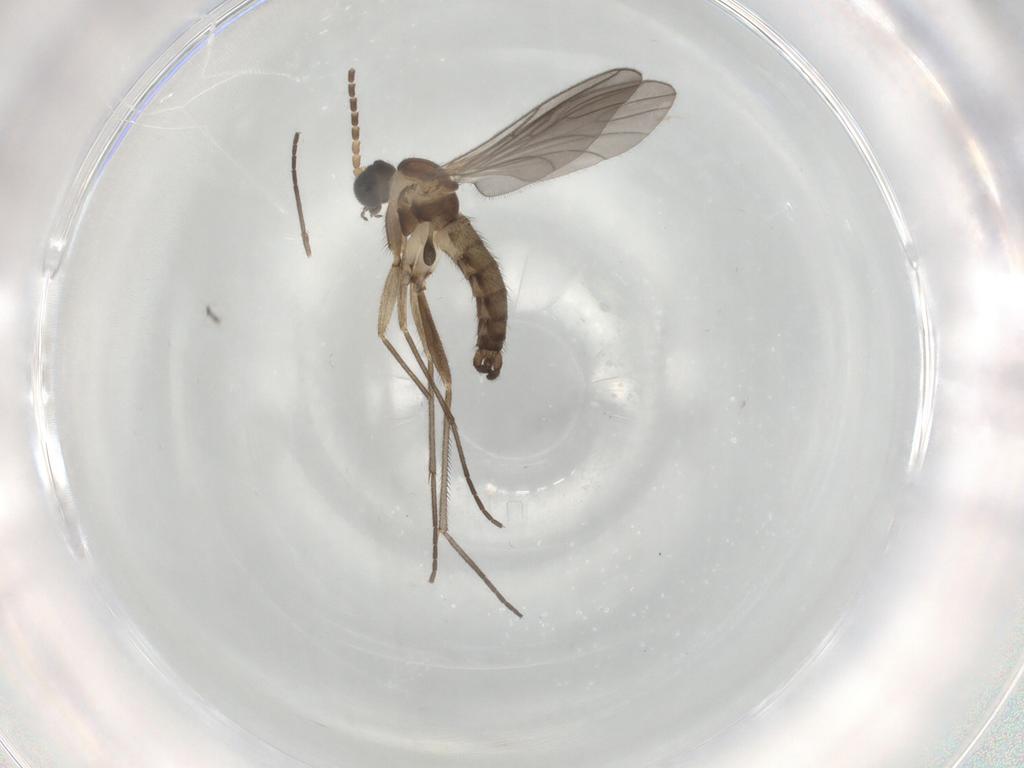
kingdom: Animalia
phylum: Arthropoda
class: Insecta
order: Diptera
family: Sciaridae
